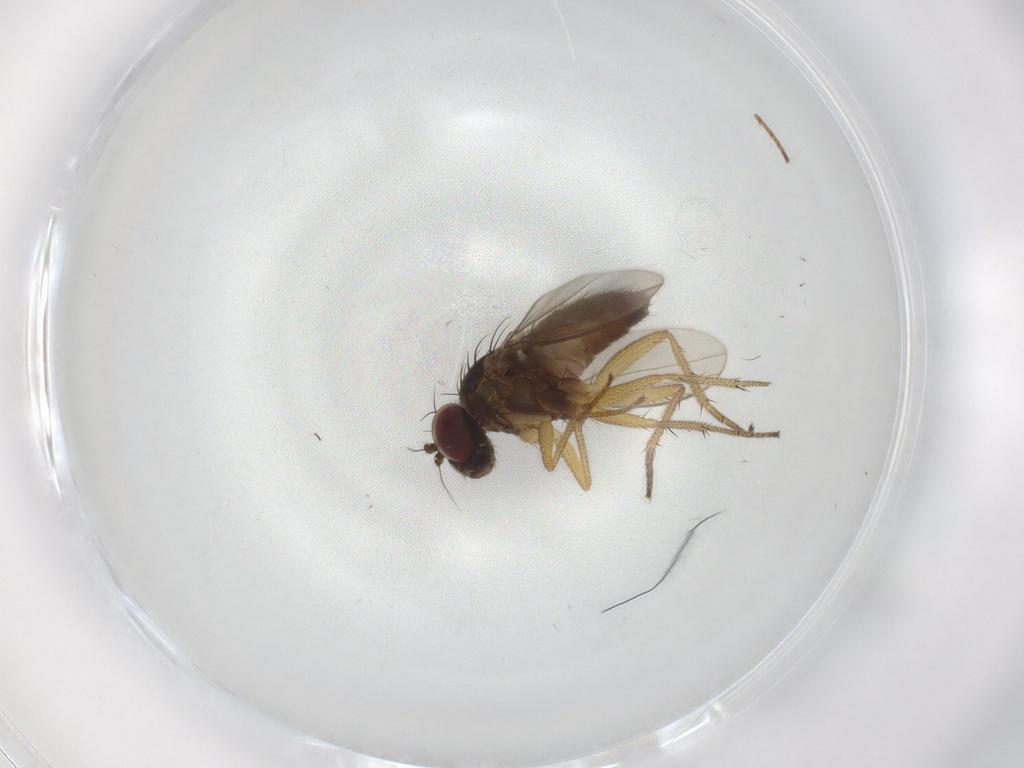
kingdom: Animalia
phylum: Arthropoda
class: Insecta
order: Diptera
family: Dolichopodidae
